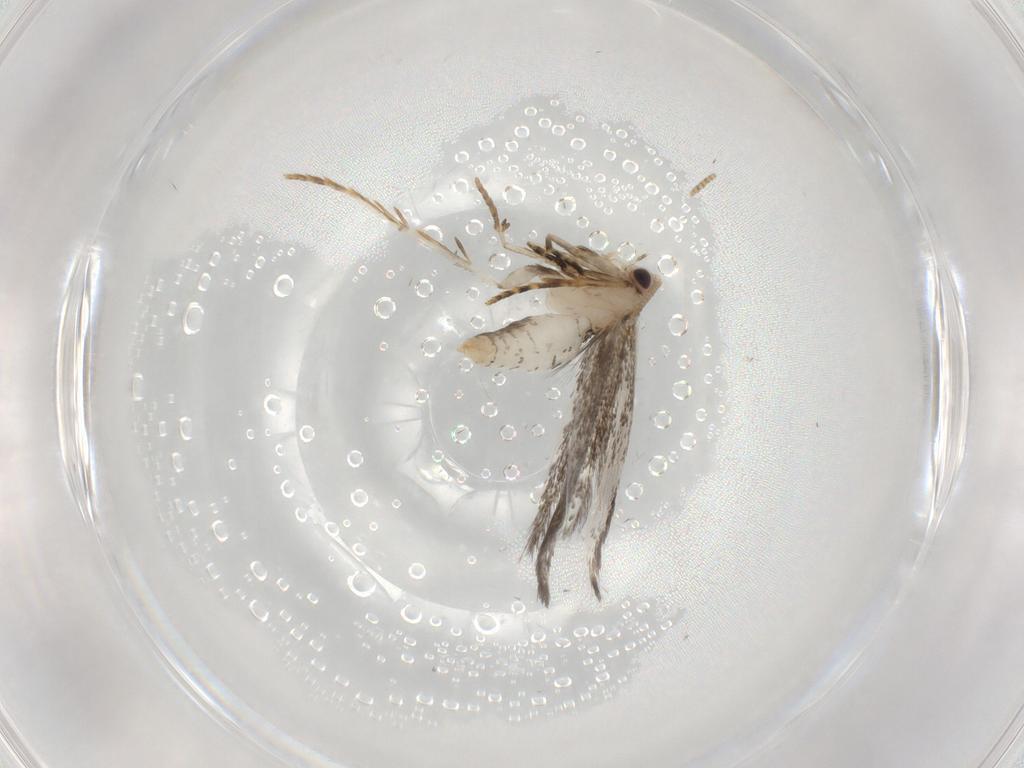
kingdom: Animalia
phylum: Arthropoda
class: Insecta
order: Lepidoptera
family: Tineidae
